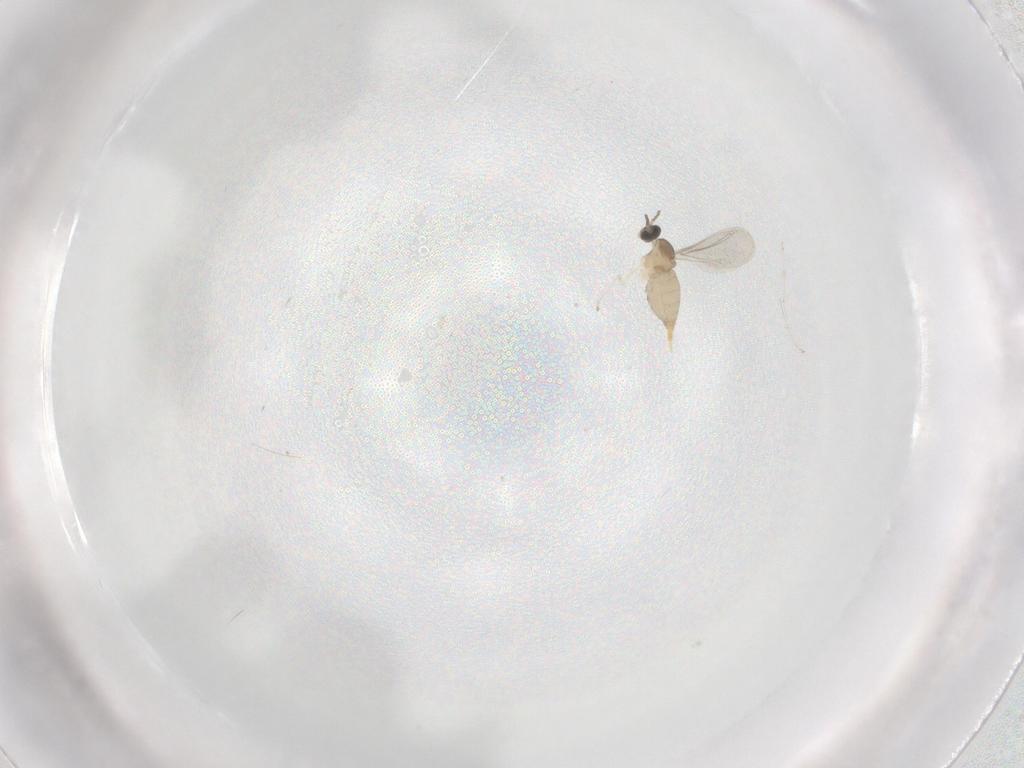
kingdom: Animalia
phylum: Arthropoda
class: Insecta
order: Diptera
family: Cecidomyiidae
